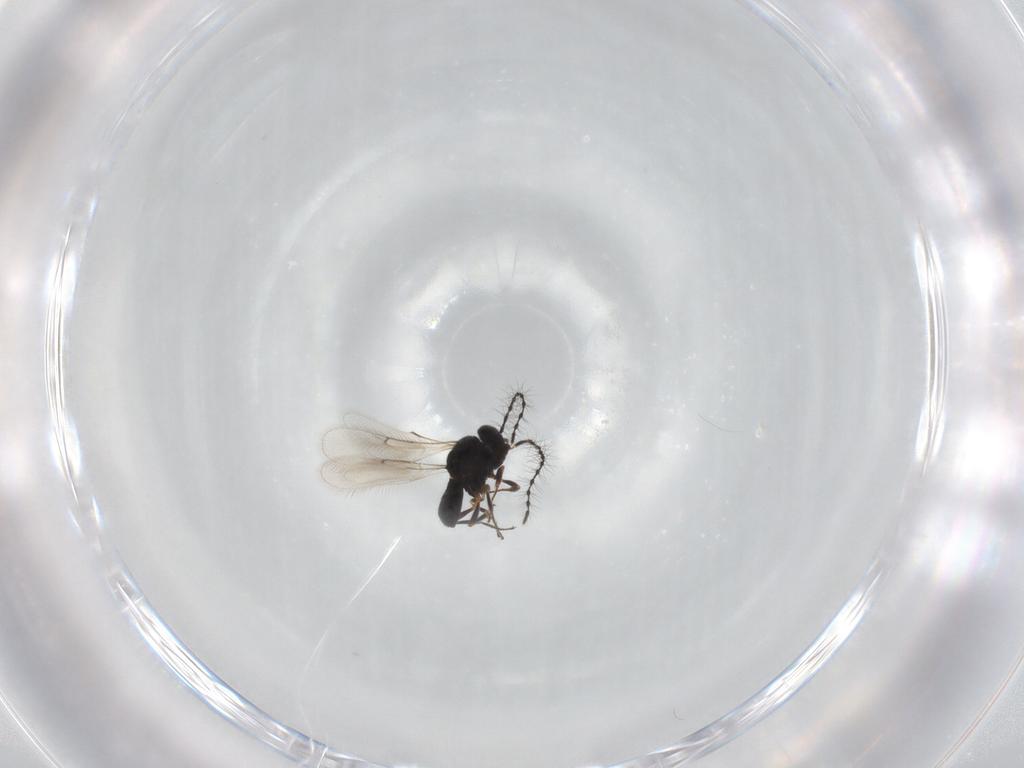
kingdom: Animalia
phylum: Arthropoda
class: Insecta
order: Hymenoptera
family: Scelionidae
